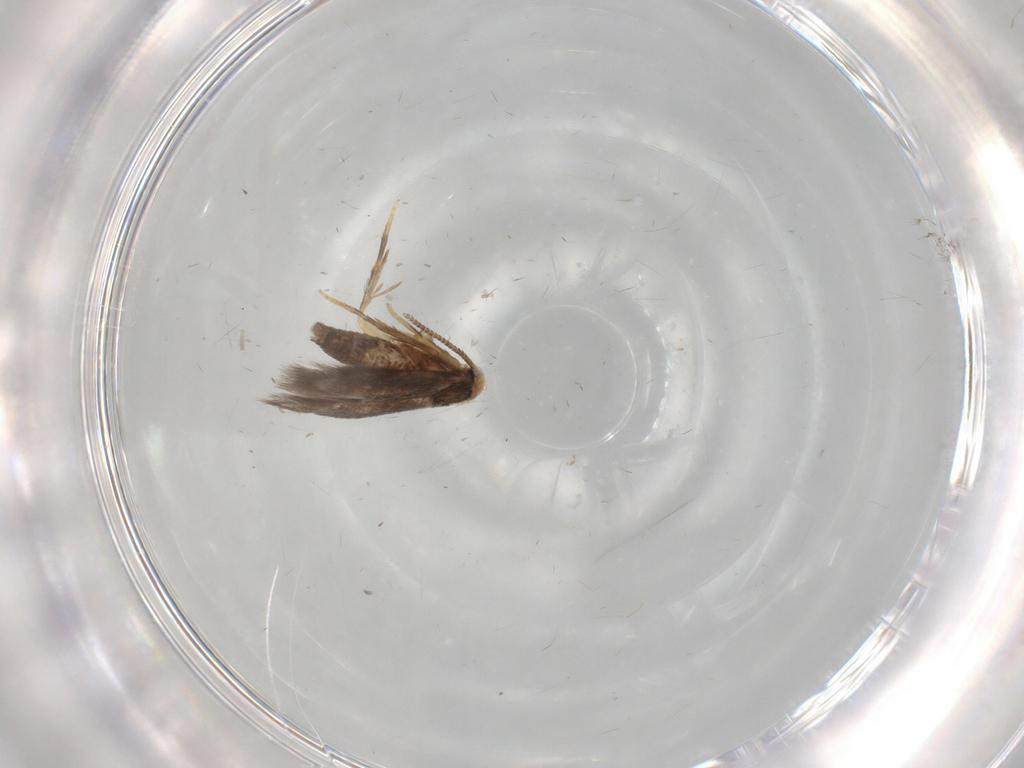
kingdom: Animalia
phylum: Arthropoda
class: Insecta
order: Lepidoptera
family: Nepticulidae
